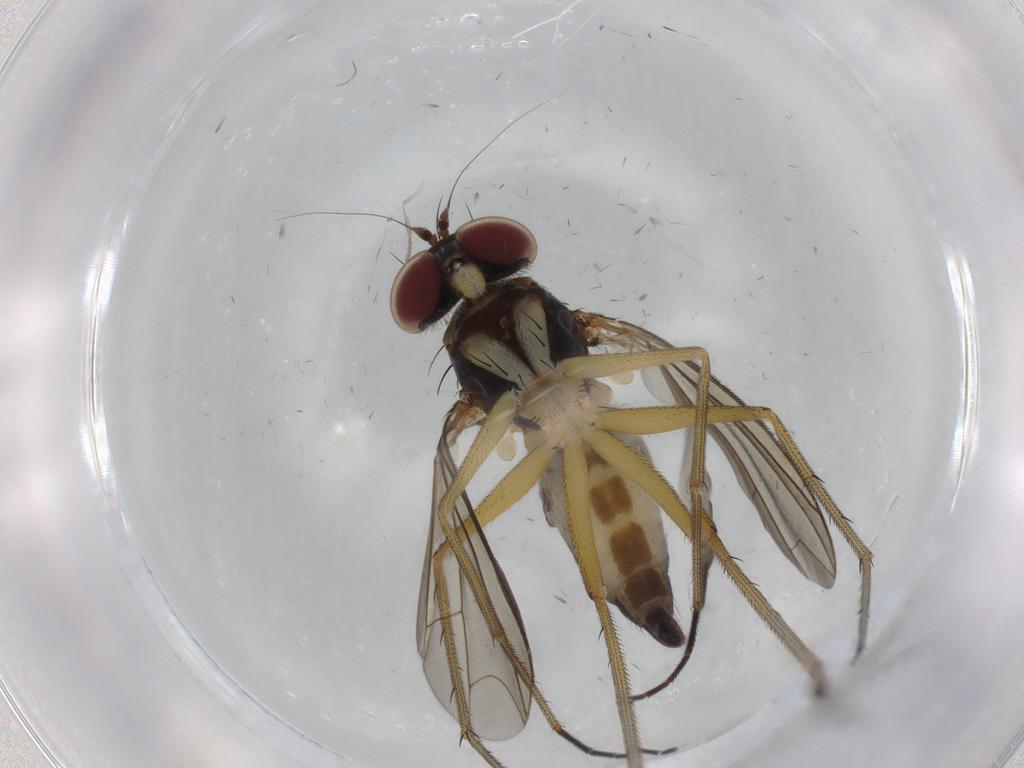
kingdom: Animalia
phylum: Arthropoda
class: Insecta
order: Diptera
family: Dolichopodidae
